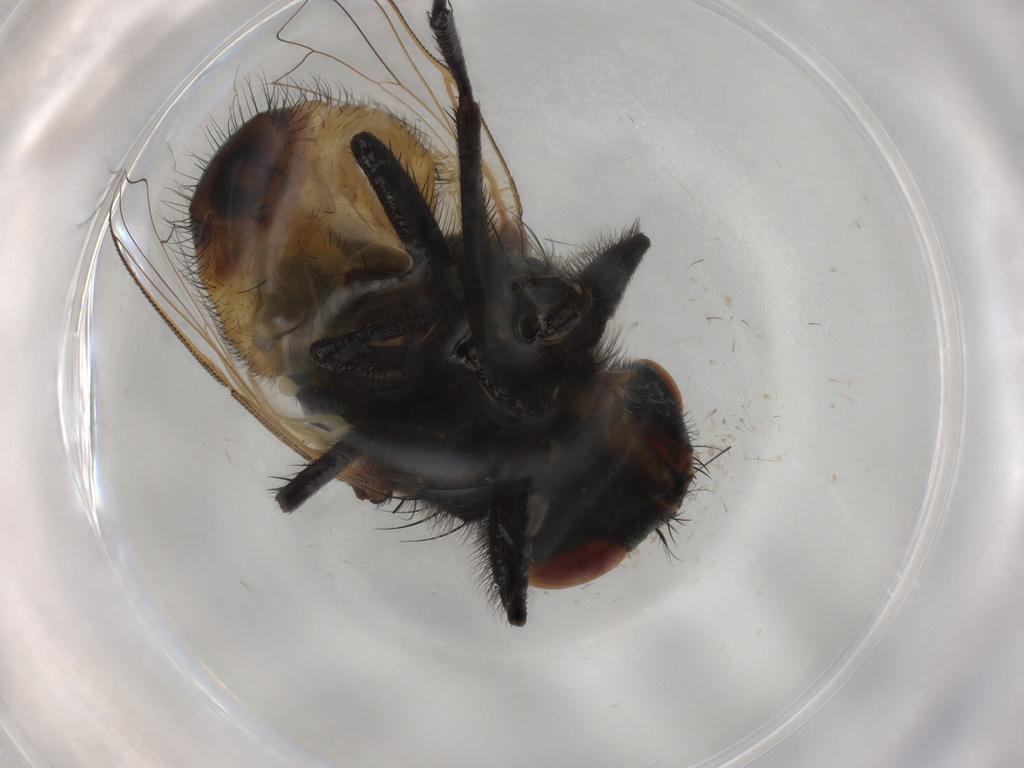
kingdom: Animalia
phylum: Arthropoda
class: Insecta
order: Diptera
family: Muscidae
